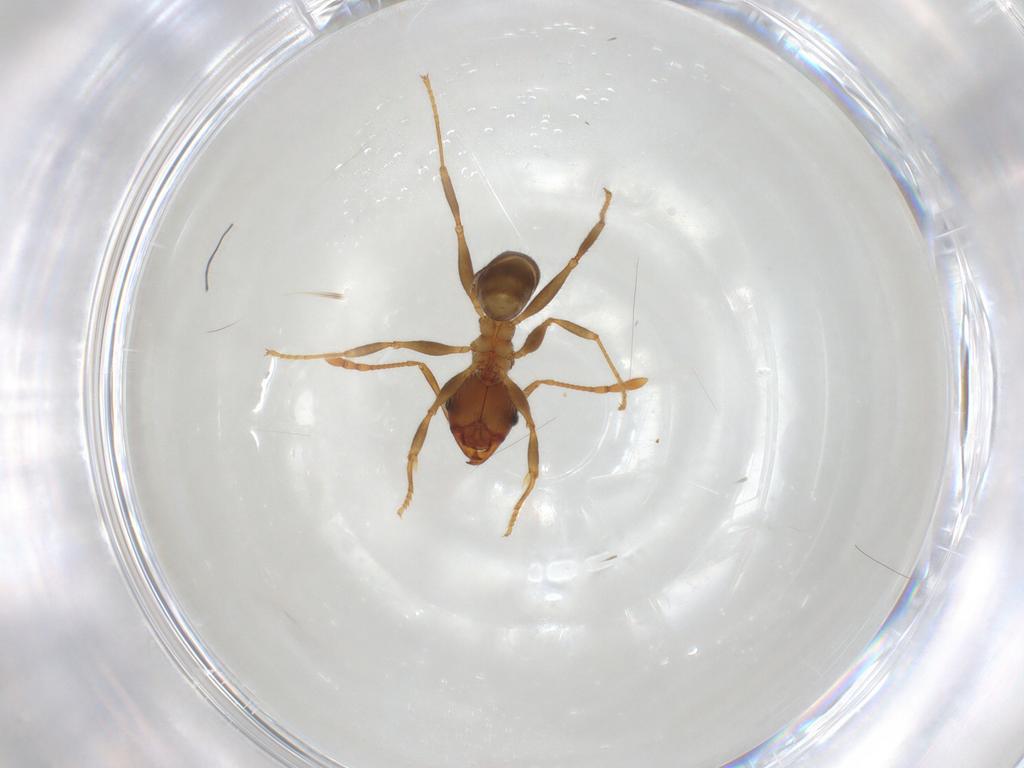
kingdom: Animalia
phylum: Arthropoda
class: Insecta
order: Hymenoptera
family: Formicidae
